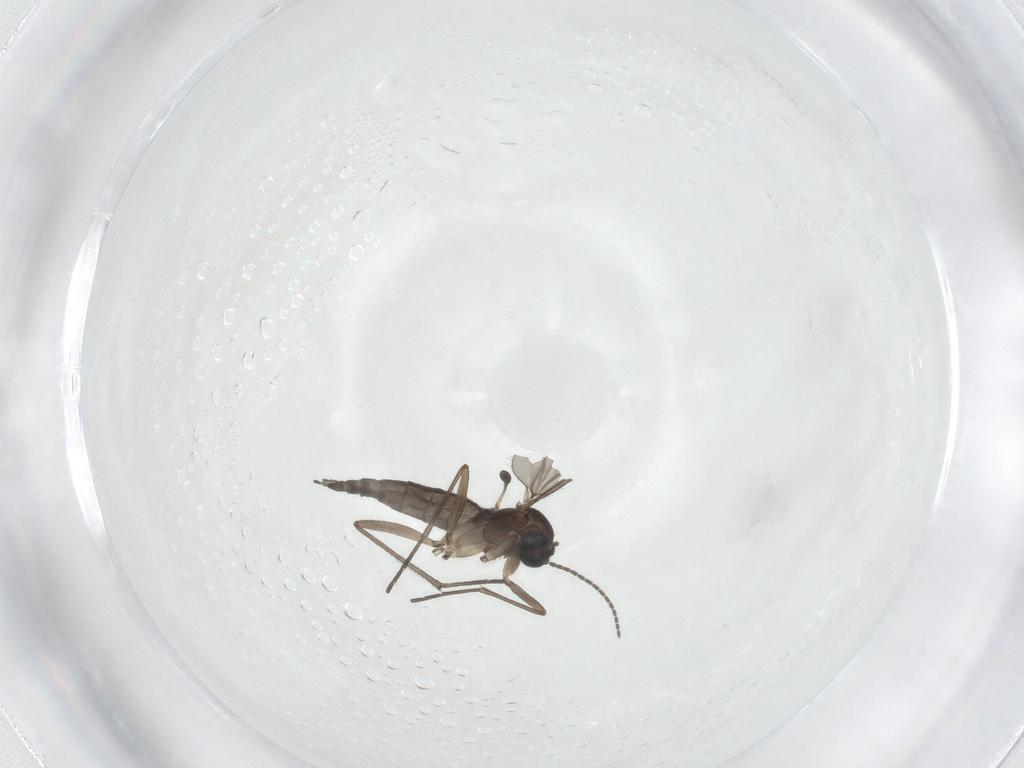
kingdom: Animalia
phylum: Arthropoda
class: Insecta
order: Diptera
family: Sciaridae
